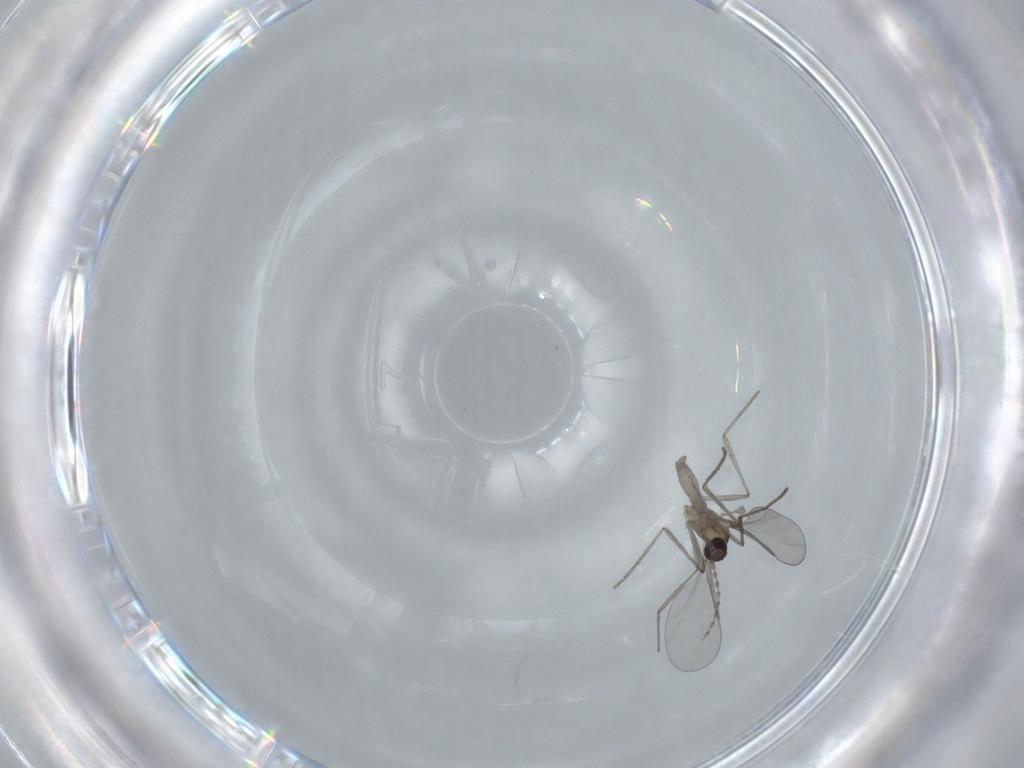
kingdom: Animalia
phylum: Arthropoda
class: Insecta
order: Diptera
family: Cecidomyiidae
